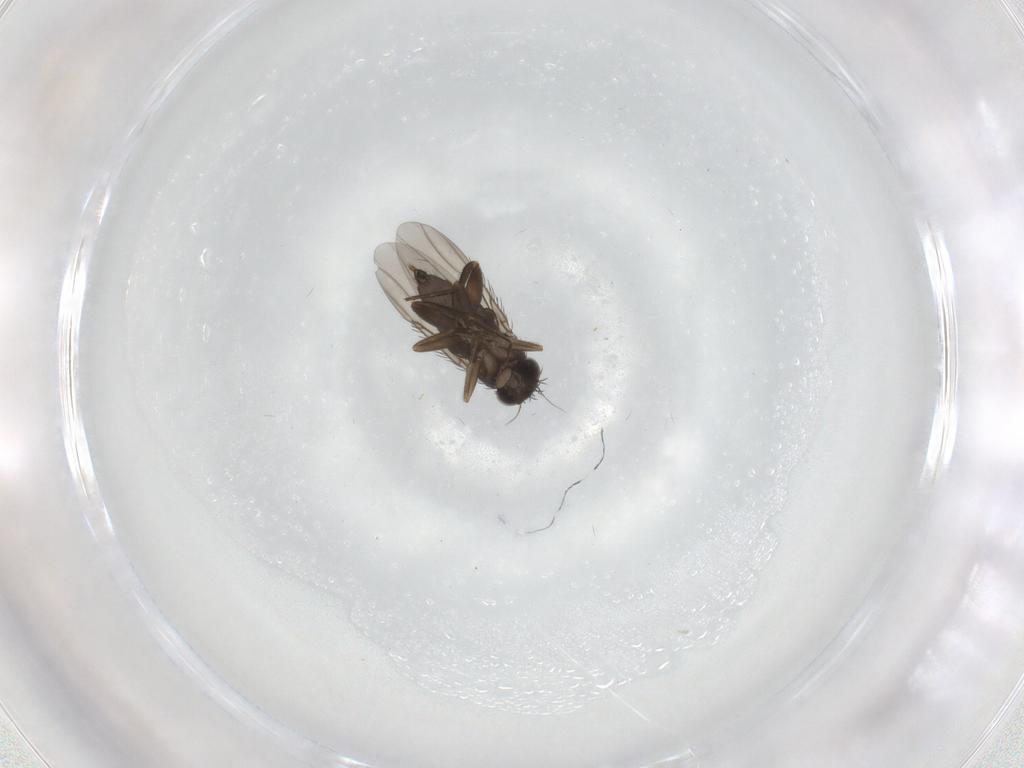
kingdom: Animalia
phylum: Arthropoda
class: Insecta
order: Diptera
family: Phoridae
